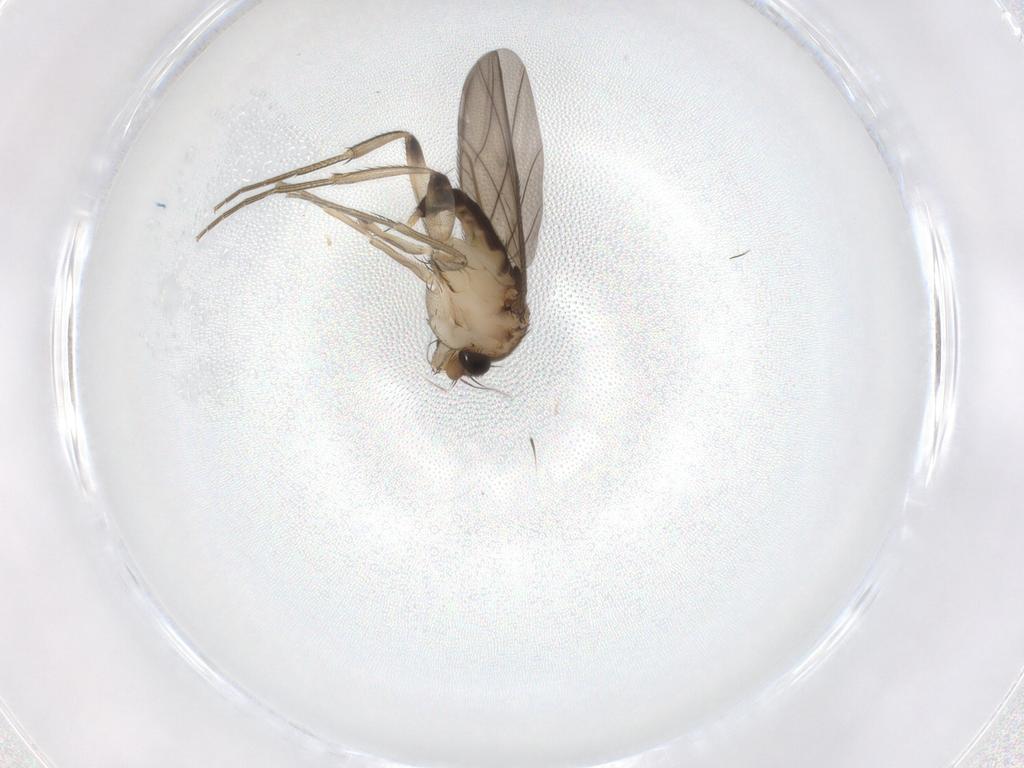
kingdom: Animalia
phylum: Arthropoda
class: Insecta
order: Diptera
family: Phoridae
